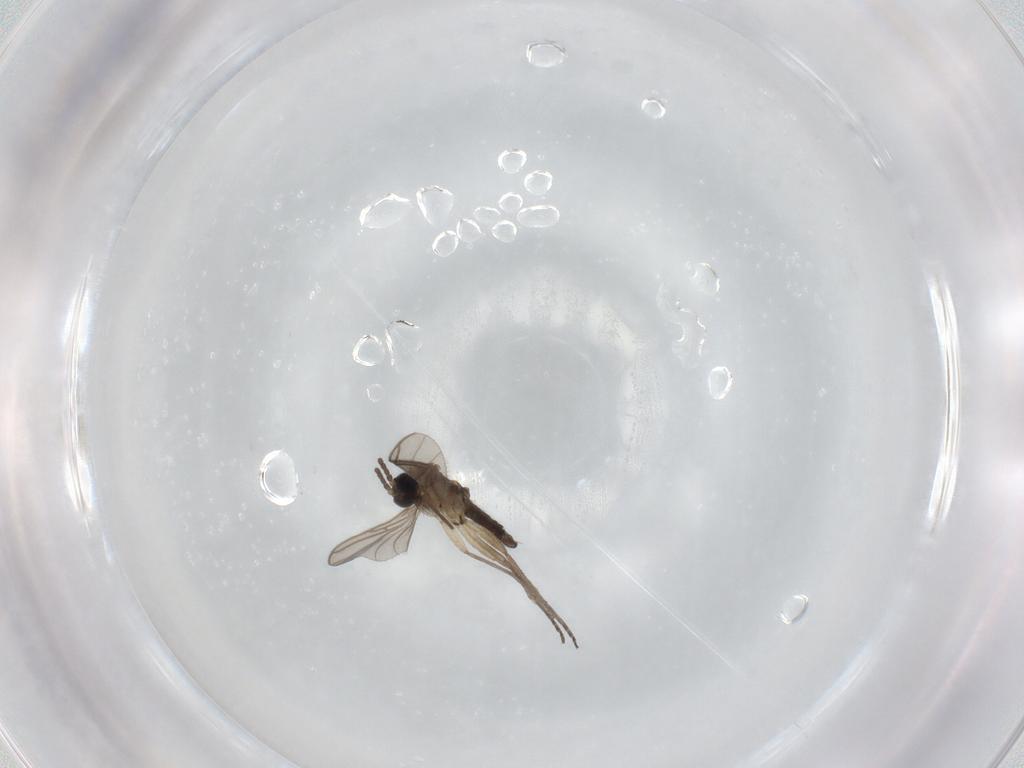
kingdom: Animalia
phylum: Arthropoda
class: Insecta
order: Diptera
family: Sciaridae
